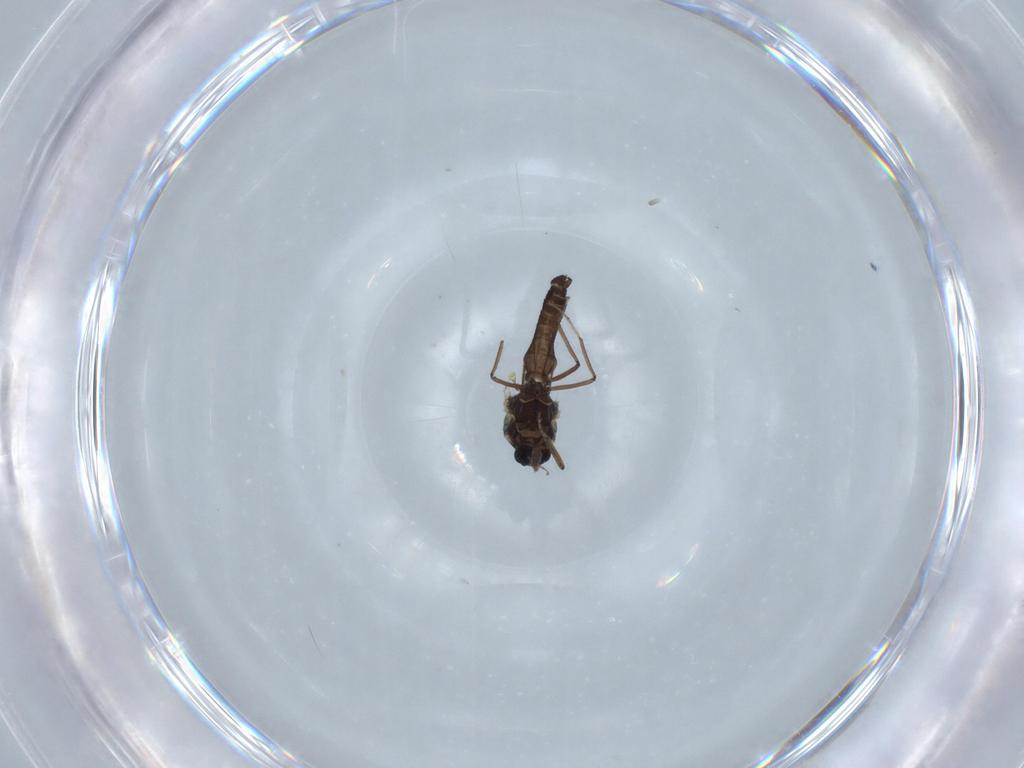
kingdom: Animalia
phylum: Arthropoda
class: Insecta
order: Diptera
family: Ceratopogonidae
